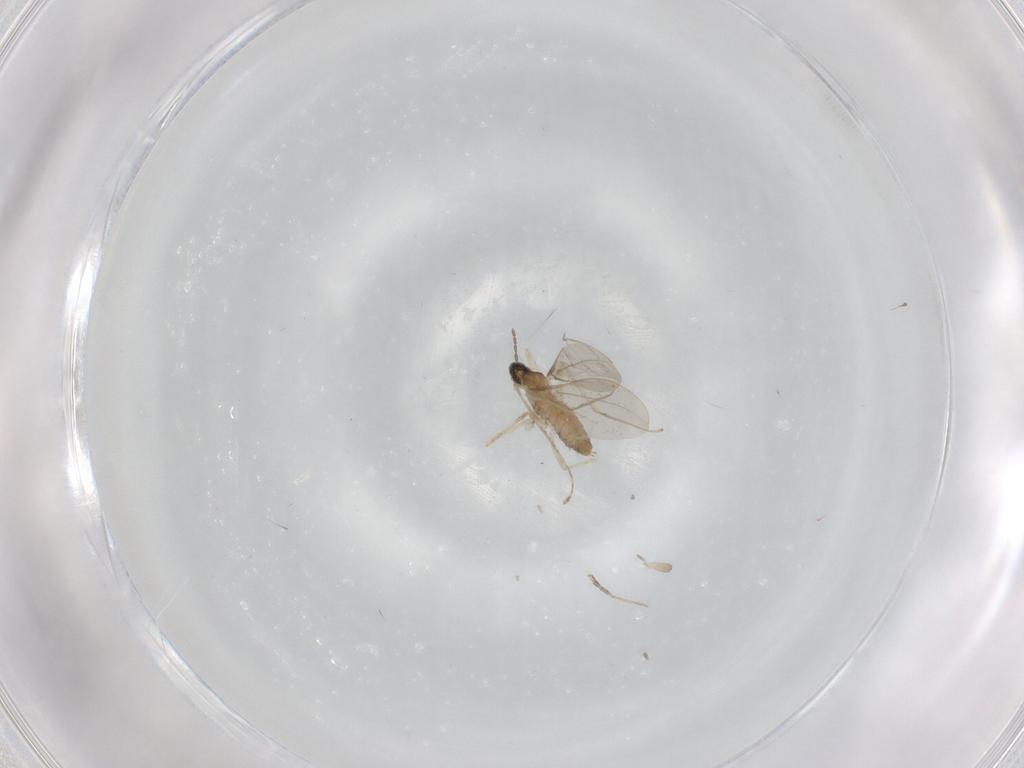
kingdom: Animalia
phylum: Arthropoda
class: Insecta
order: Diptera
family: Cecidomyiidae
